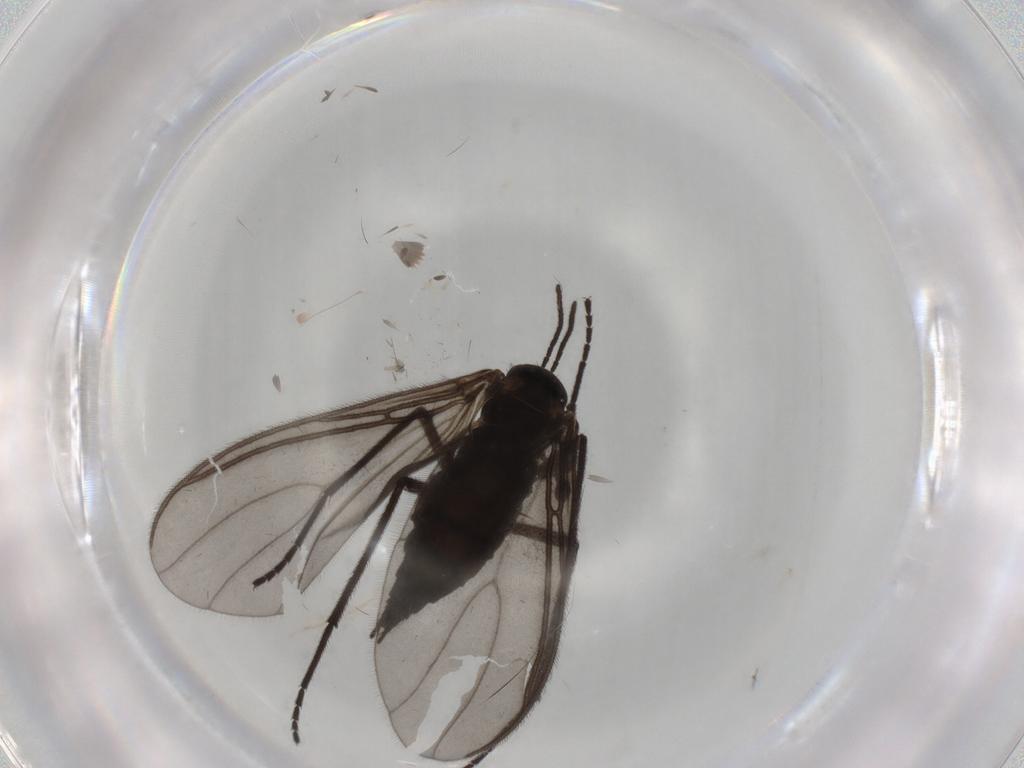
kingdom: Animalia
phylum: Arthropoda
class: Insecta
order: Diptera
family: Sciaridae
